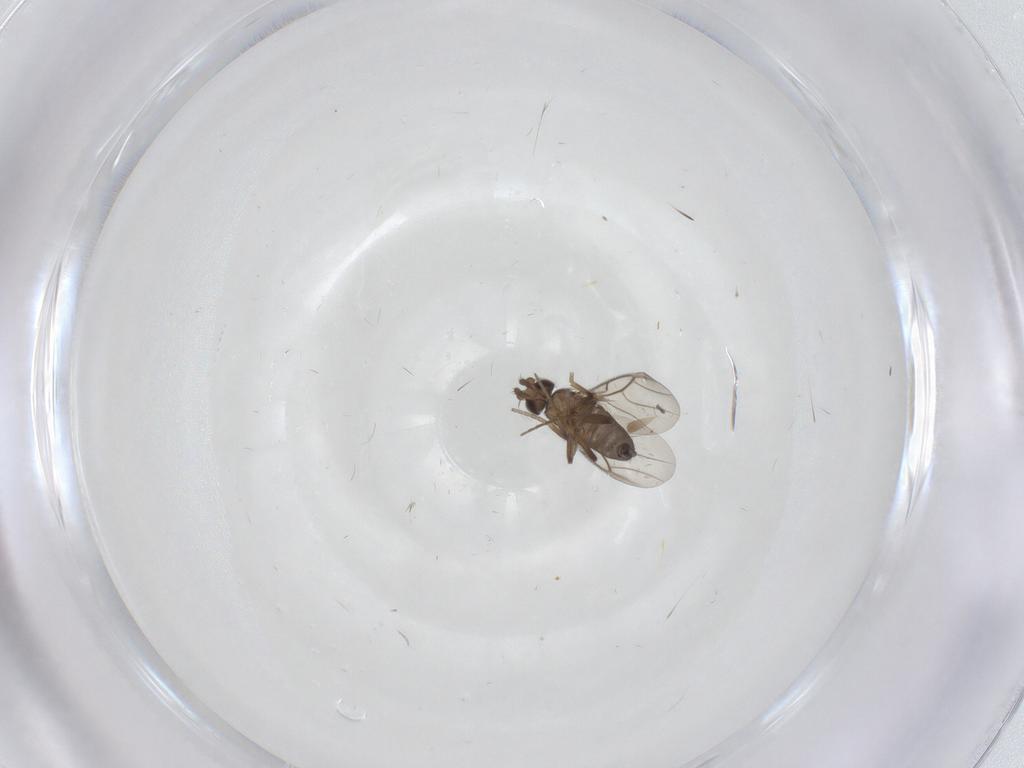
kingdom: Animalia
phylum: Arthropoda
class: Insecta
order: Diptera
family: Phoridae
